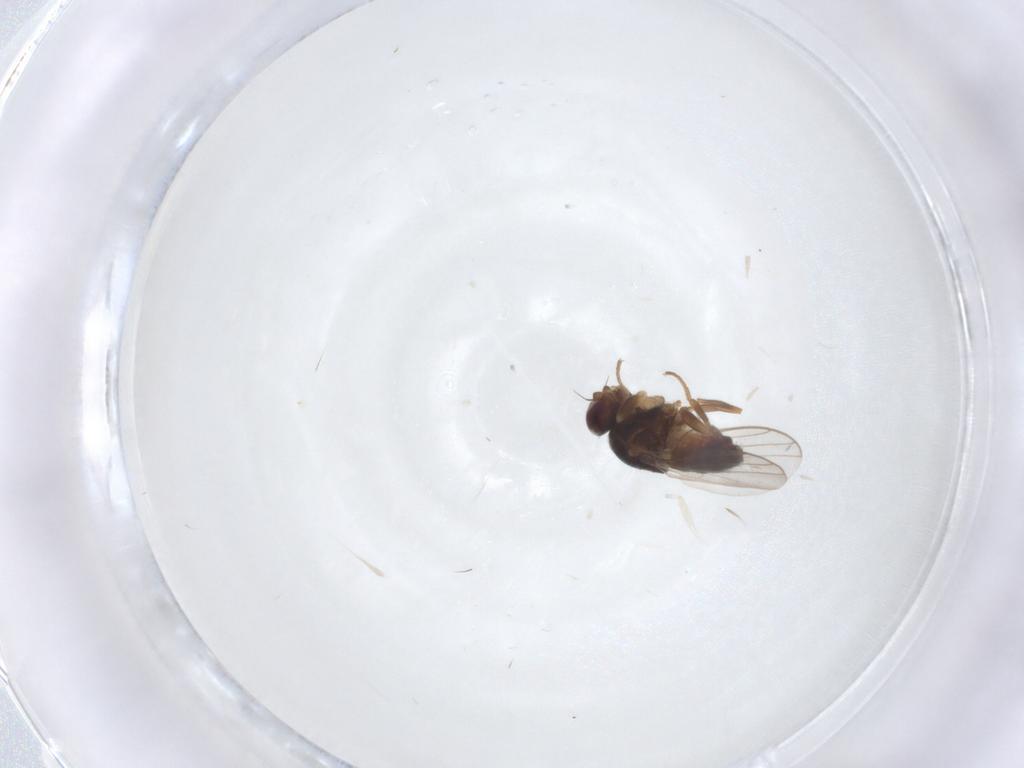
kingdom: Animalia
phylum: Arthropoda
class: Insecta
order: Diptera
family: Chloropidae
